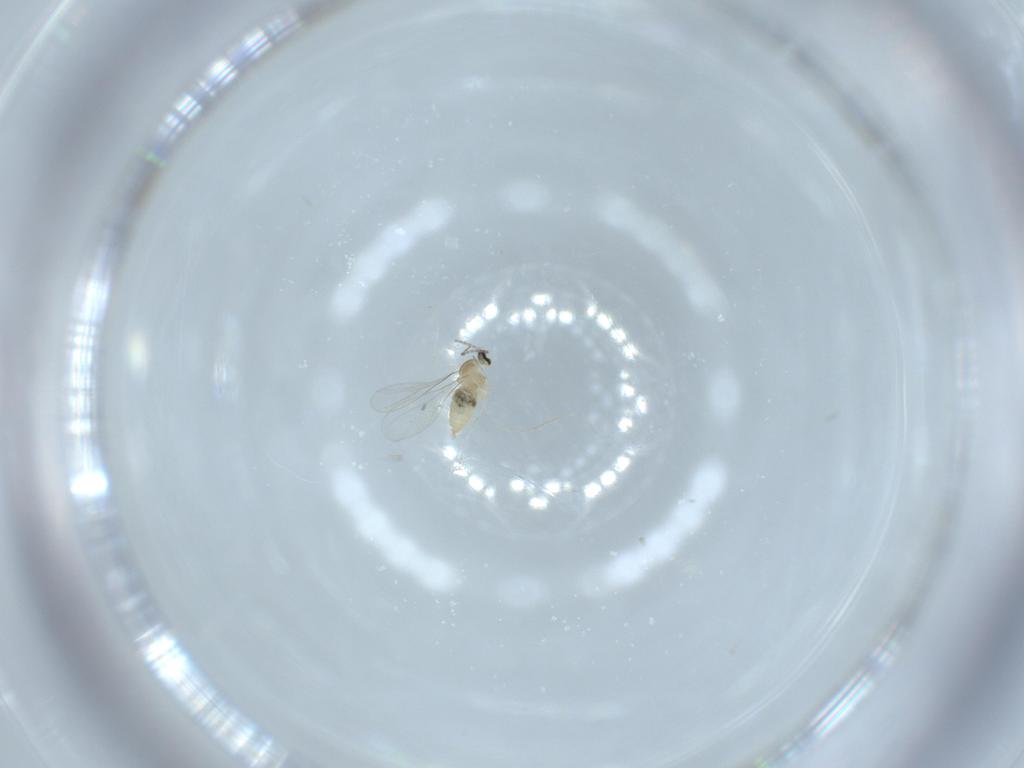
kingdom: Animalia
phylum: Arthropoda
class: Insecta
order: Diptera
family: Cecidomyiidae
